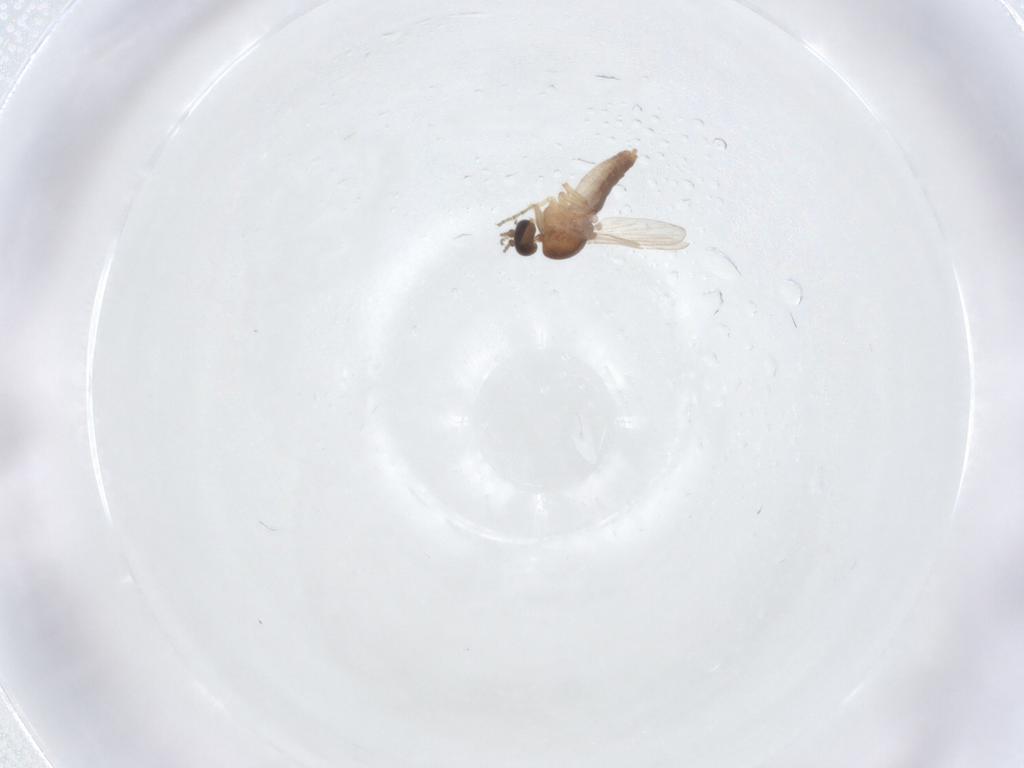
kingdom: Animalia
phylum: Arthropoda
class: Insecta
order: Diptera
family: Ceratopogonidae
